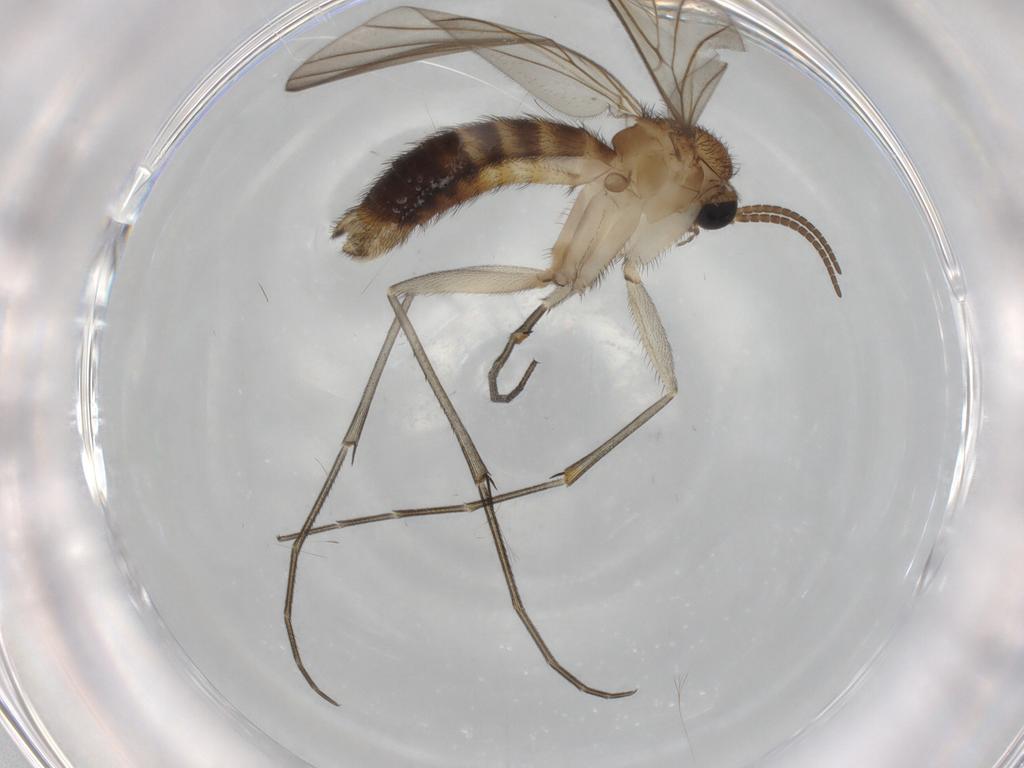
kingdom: Animalia
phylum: Arthropoda
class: Insecta
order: Diptera
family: Keroplatidae
